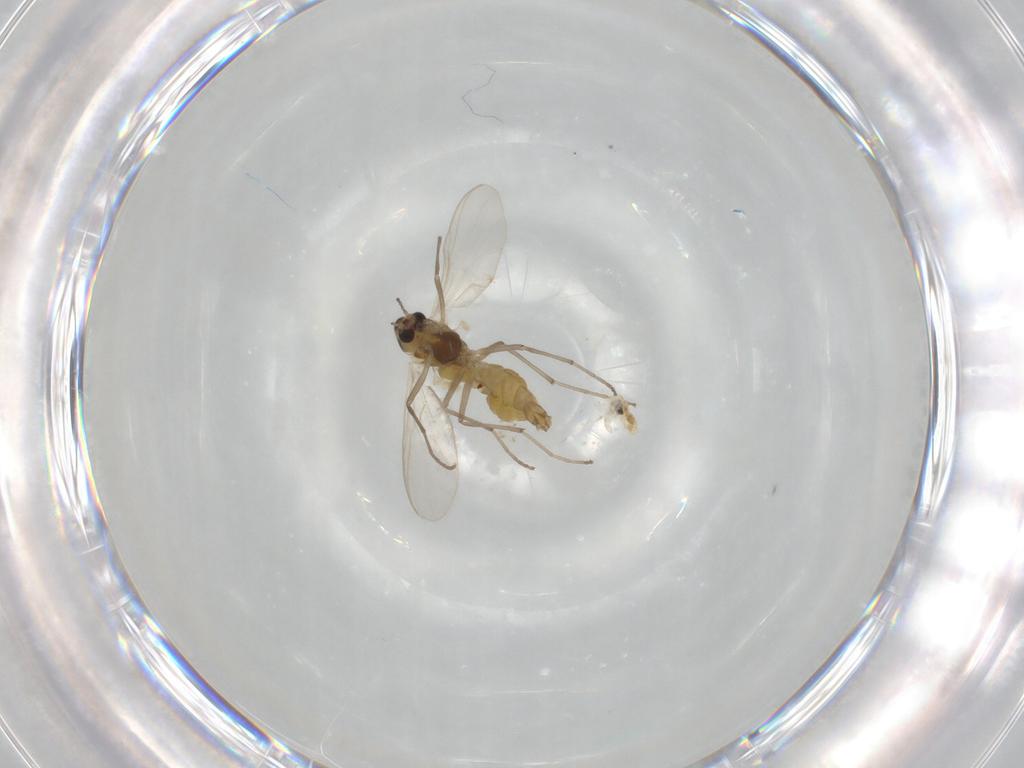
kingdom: Animalia
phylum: Arthropoda
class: Insecta
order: Diptera
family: Chironomidae
